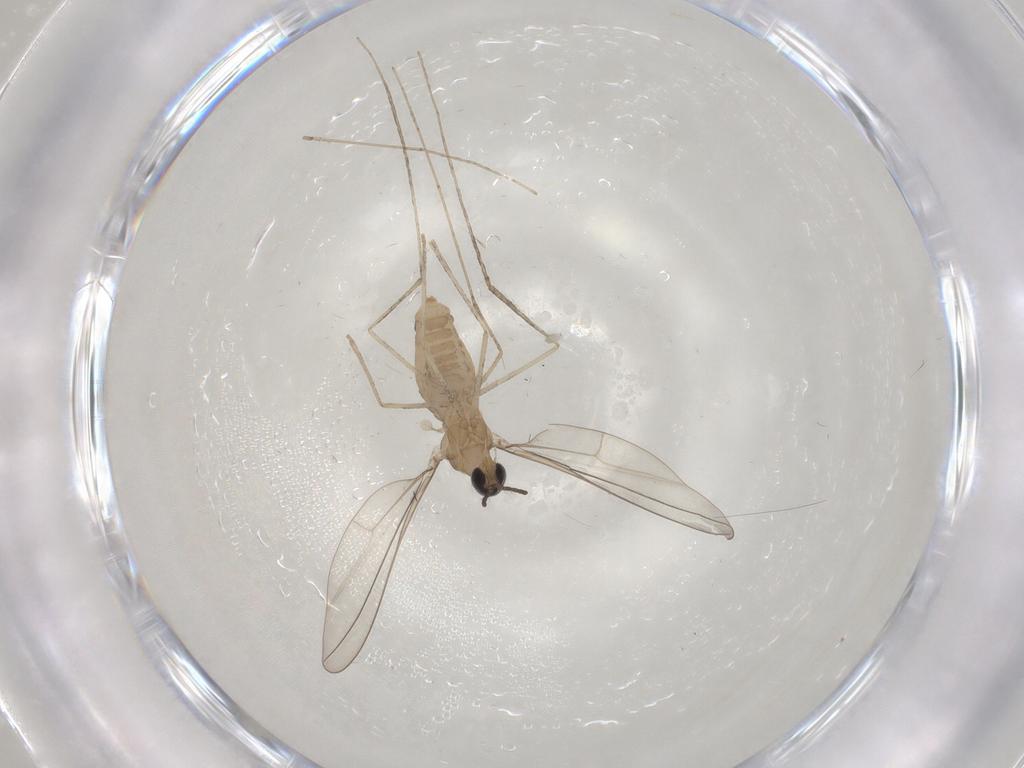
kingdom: Animalia
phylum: Arthropoda
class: Insecta
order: Diptera
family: Cecidomyiidae
